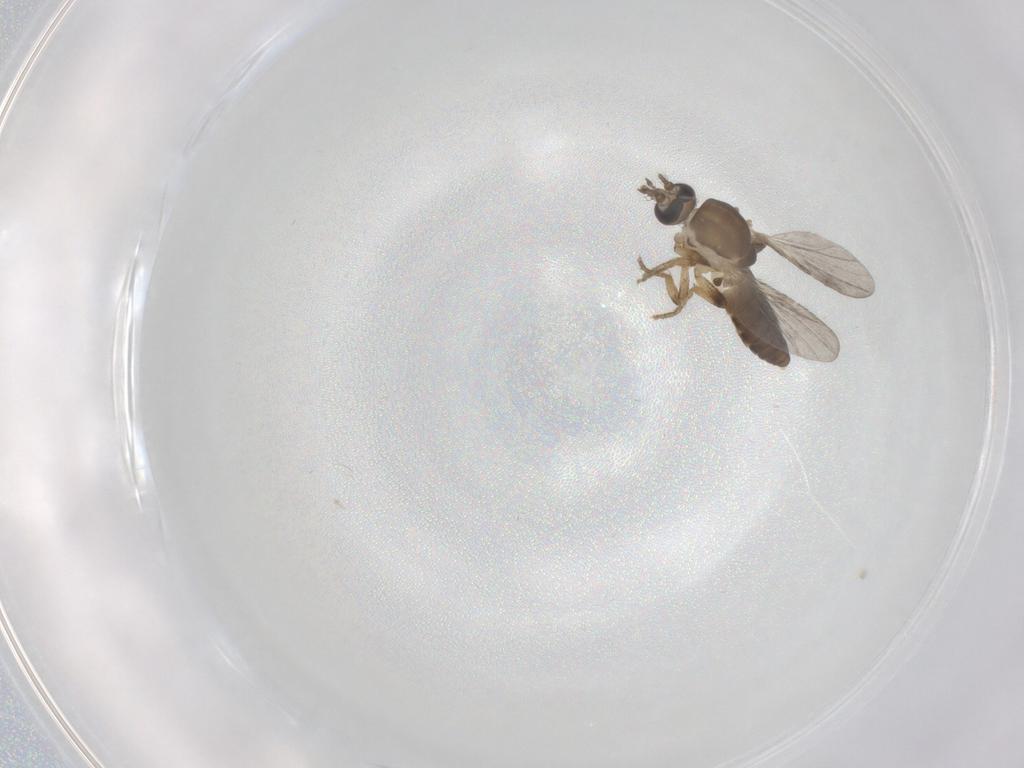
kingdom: Animalia
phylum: Arthropoda
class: Insecta
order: Diptera
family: Ceratopogonidae
